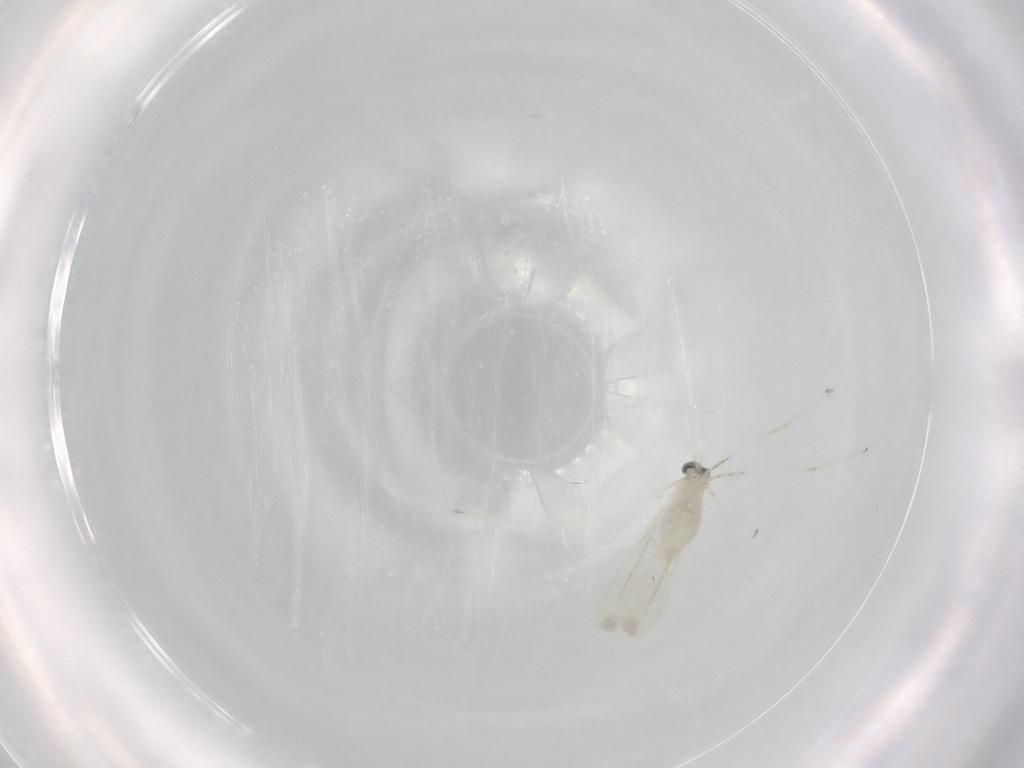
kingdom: Animalia
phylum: Arthropoda
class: Insecta
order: Diptera
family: Cecidomyiidae
